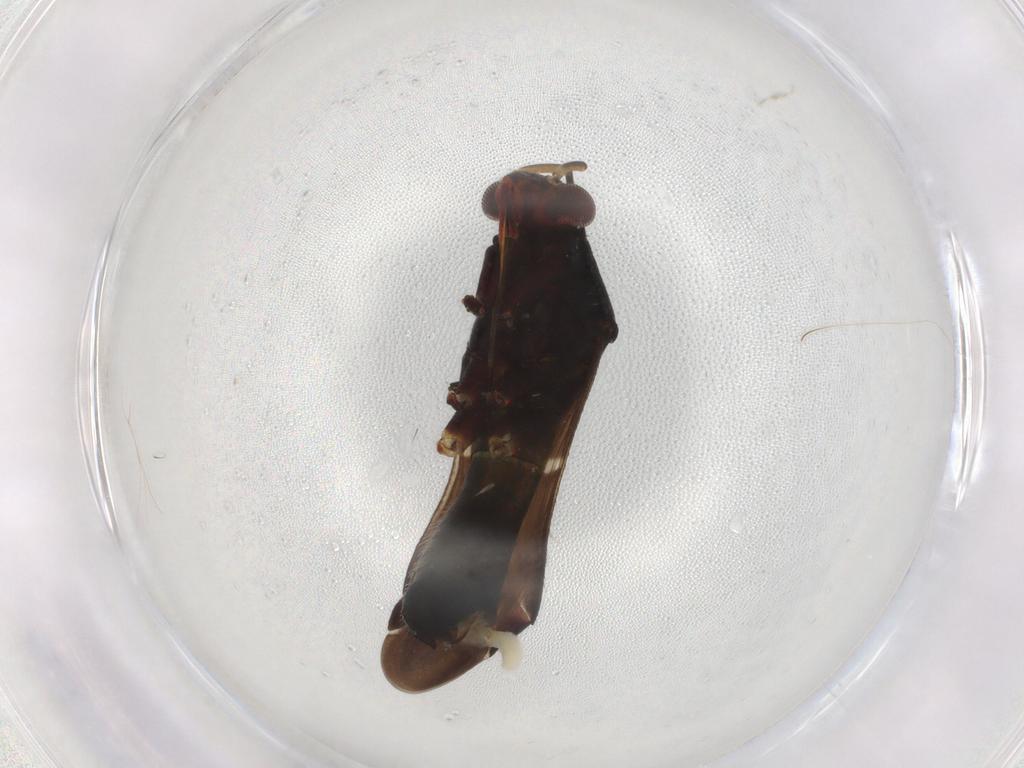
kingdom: Animalia
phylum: Arthropoda
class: Insecta
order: Hemiptera
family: Miridae
